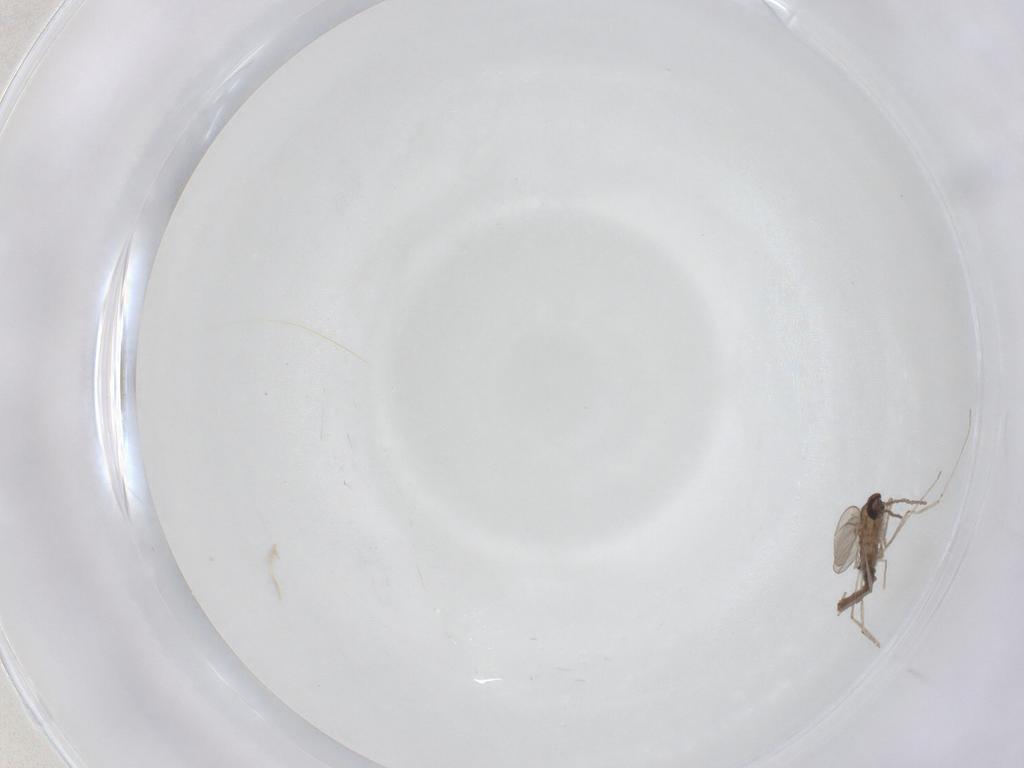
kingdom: Animalia
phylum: Arthropoda
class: Insecta
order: Diptera
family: Cecidomyiidae
